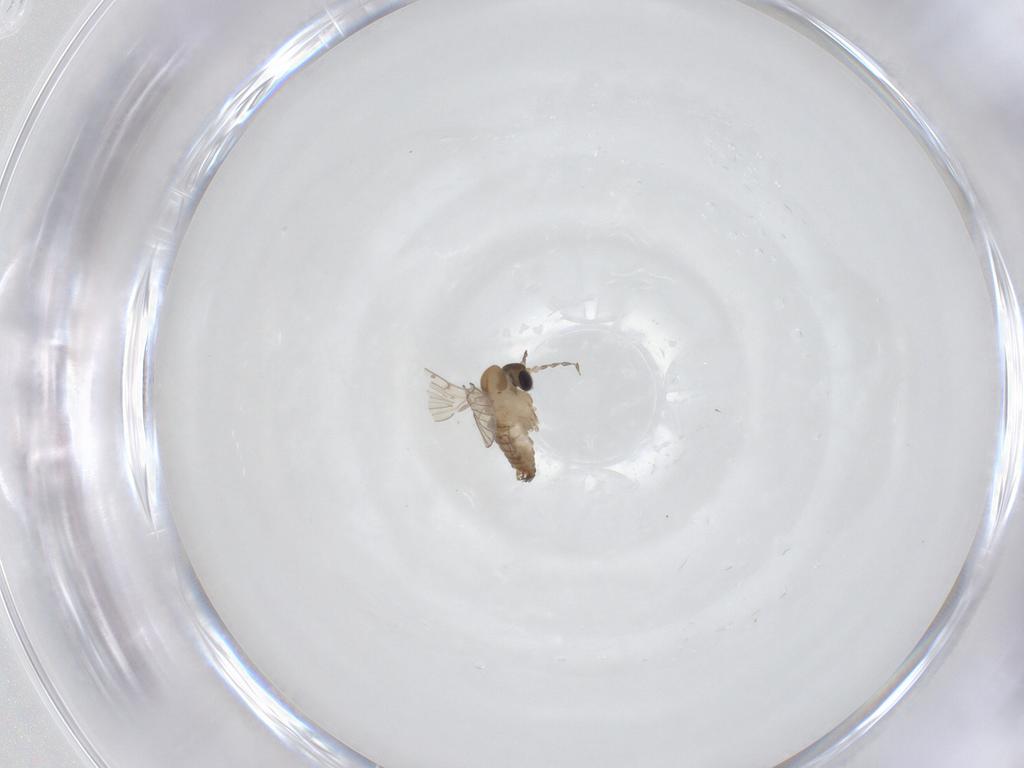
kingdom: Animalia
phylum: Arthropoda
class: Insecta
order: Diptera
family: Psychodidae
